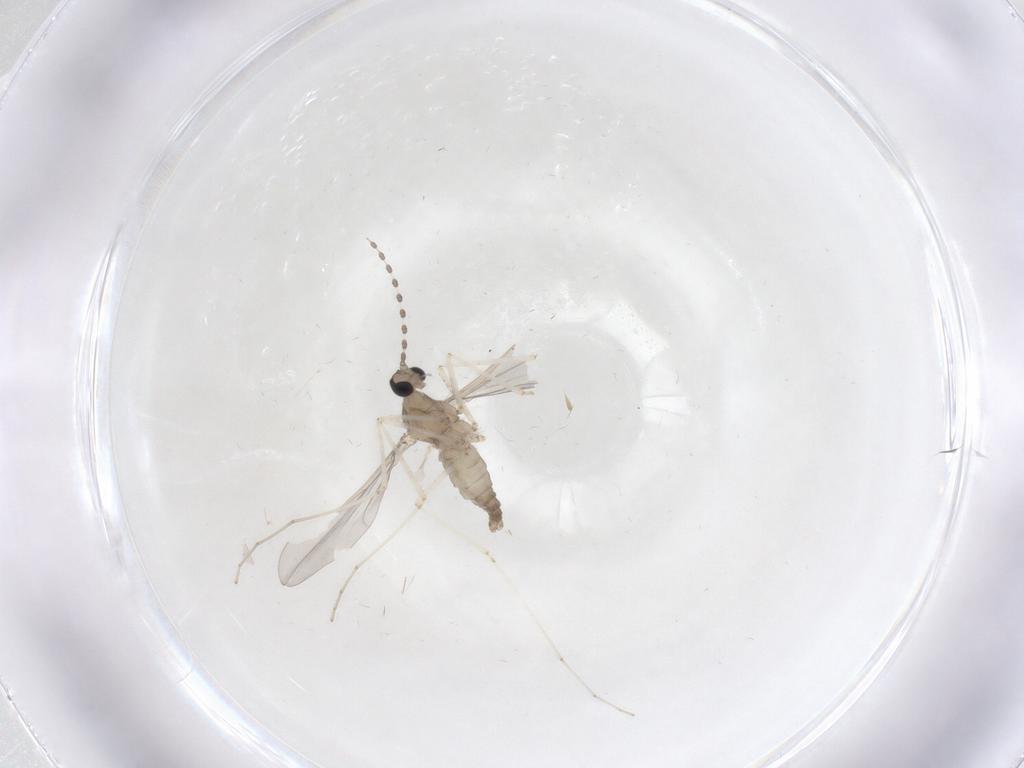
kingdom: Animalia
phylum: Arthropoda
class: Insecta
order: Diptera
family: Cecidomyiidae
